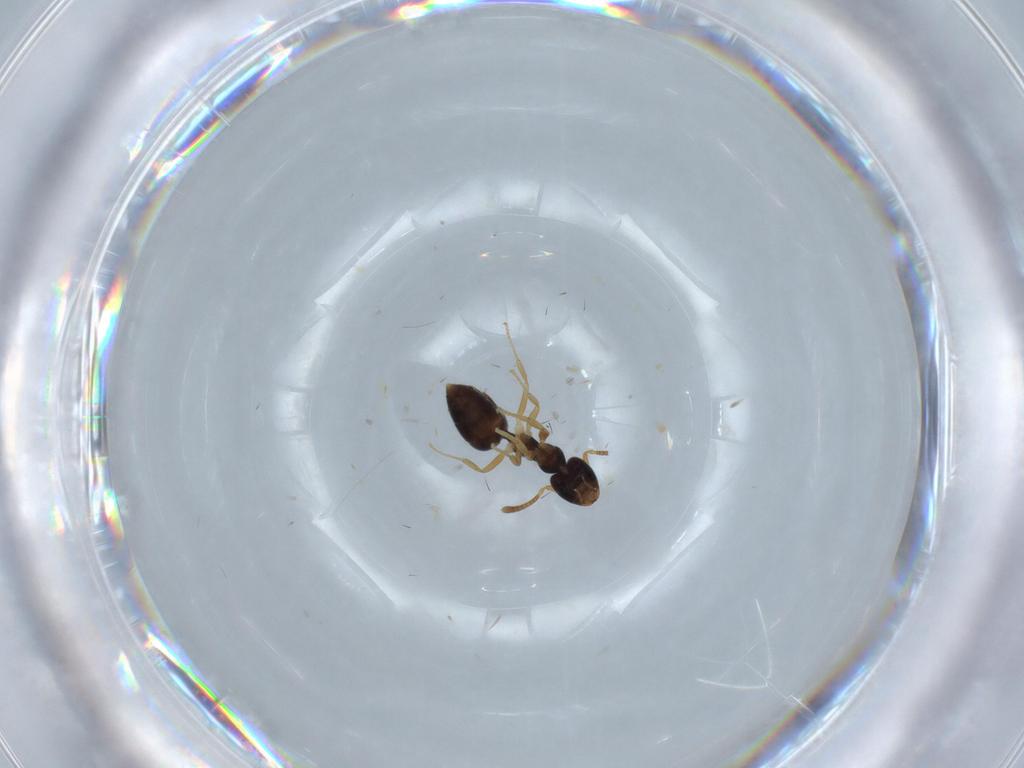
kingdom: Animalia
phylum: Arthropoda
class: Insecta
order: Hymenoptera
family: Formicidae
